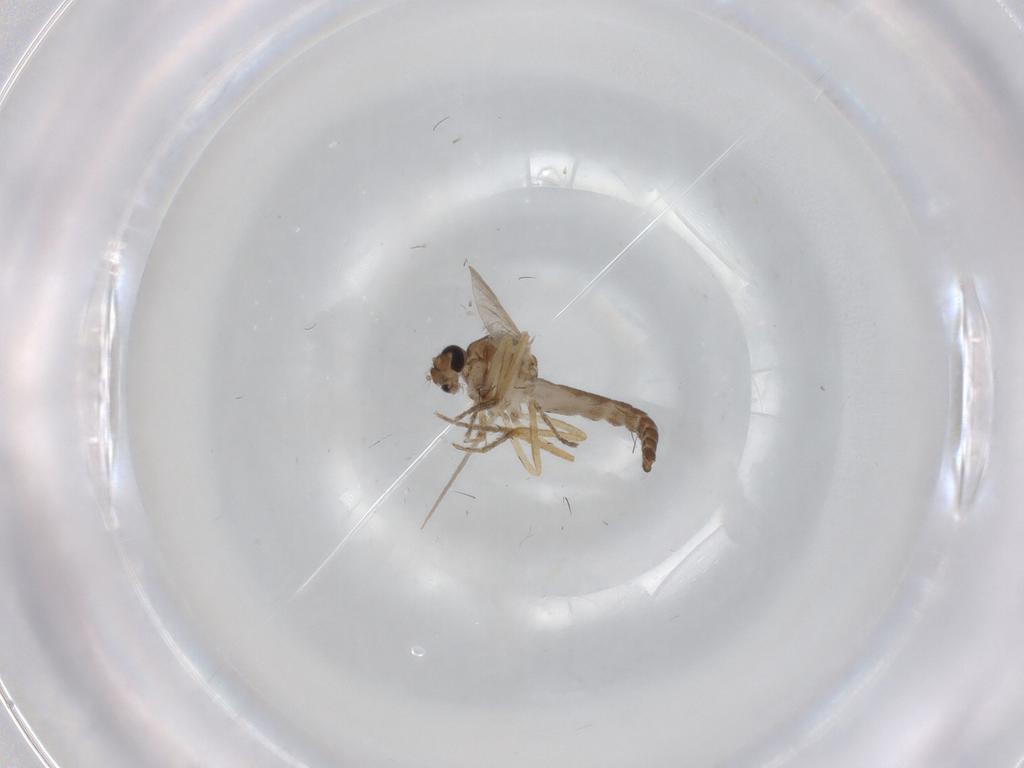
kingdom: Animalia
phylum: Arthropoda
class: Insecta
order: Diptera
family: Ceratopogonidae
